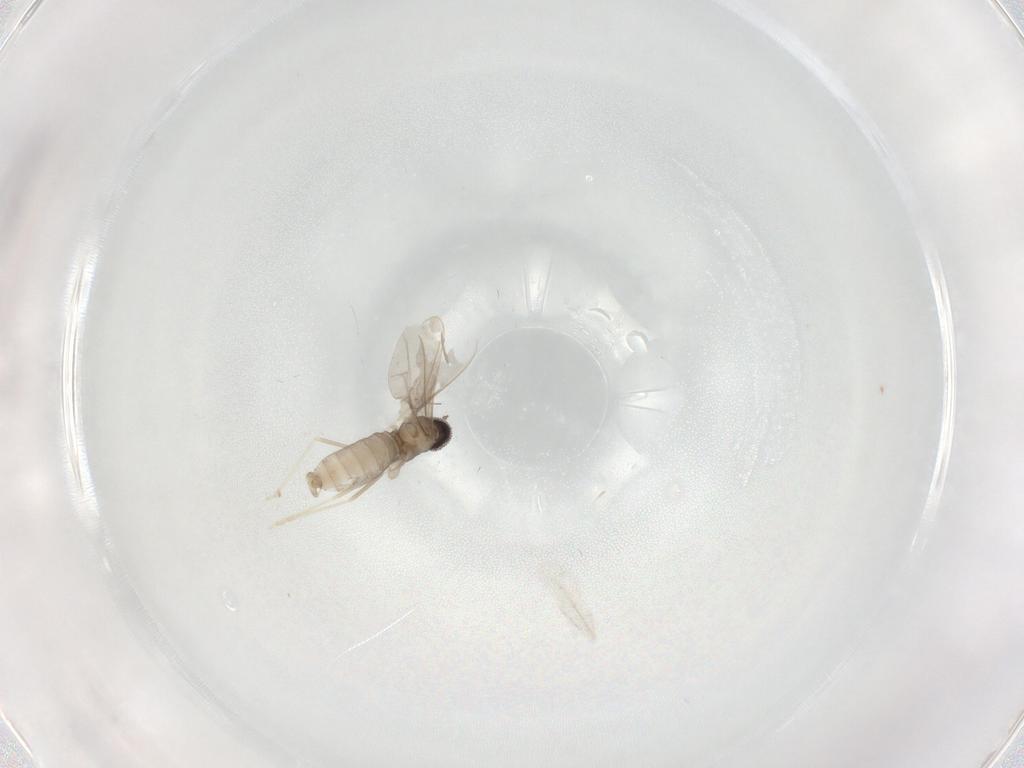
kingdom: Animalia
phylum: Arthropoda
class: Insecta
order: Diptera
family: Cecidomyiidae
